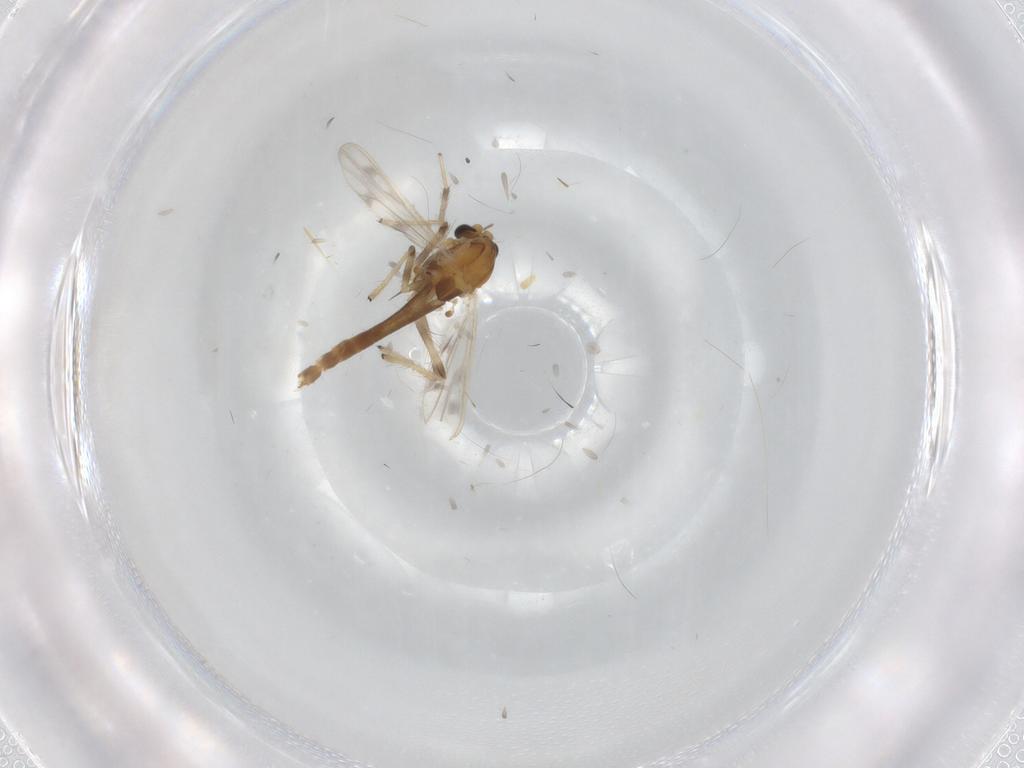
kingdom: Animalia
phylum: Arthropoda
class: Insecta
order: Diptera
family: Chironomidae
